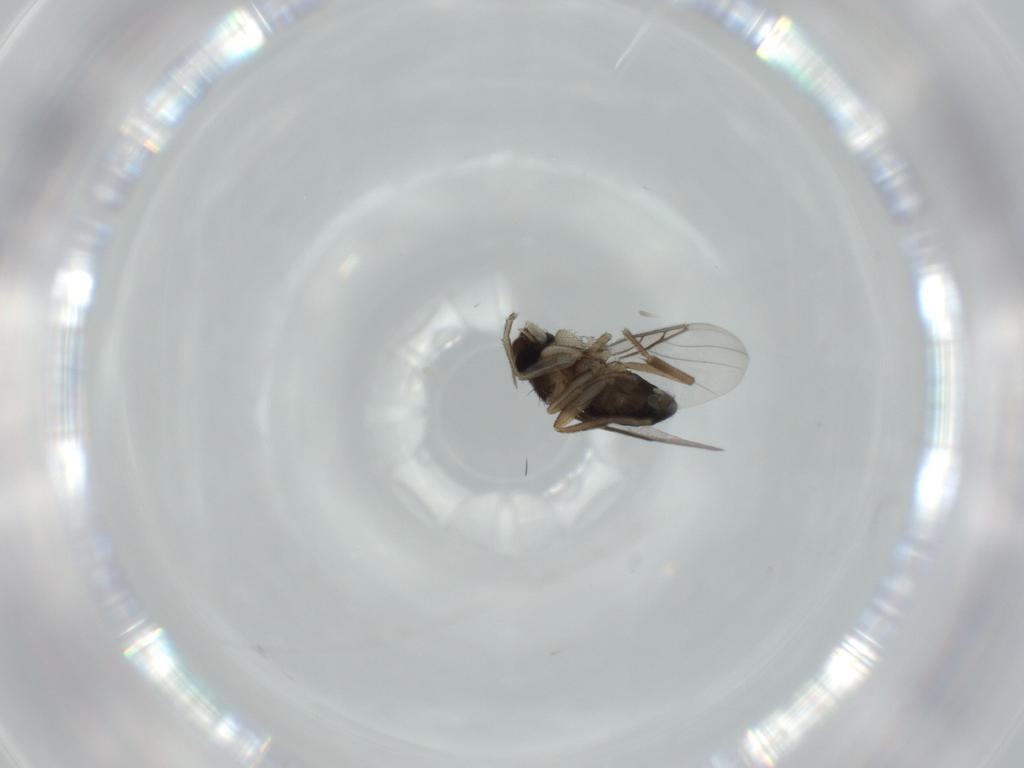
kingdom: Animalia
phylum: Arthropoda
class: Insecta
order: Diptera
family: Phoridae
